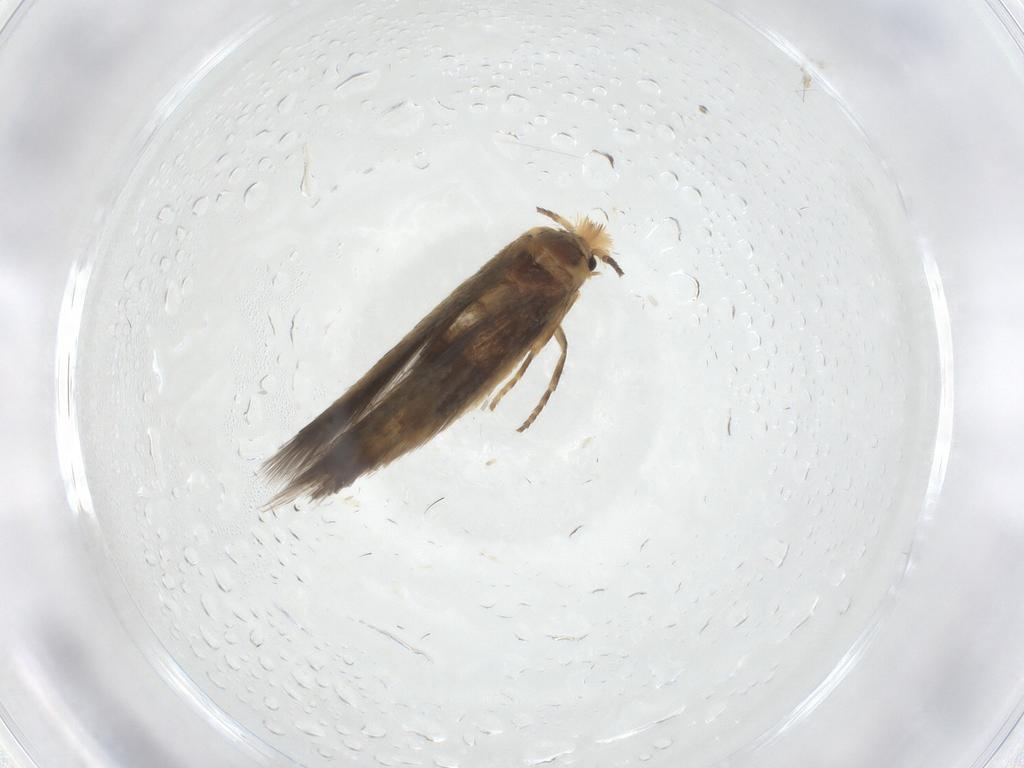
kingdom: Animalia
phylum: Arthropoda
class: Insecta
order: Lepidoptera
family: Nepticulidae
